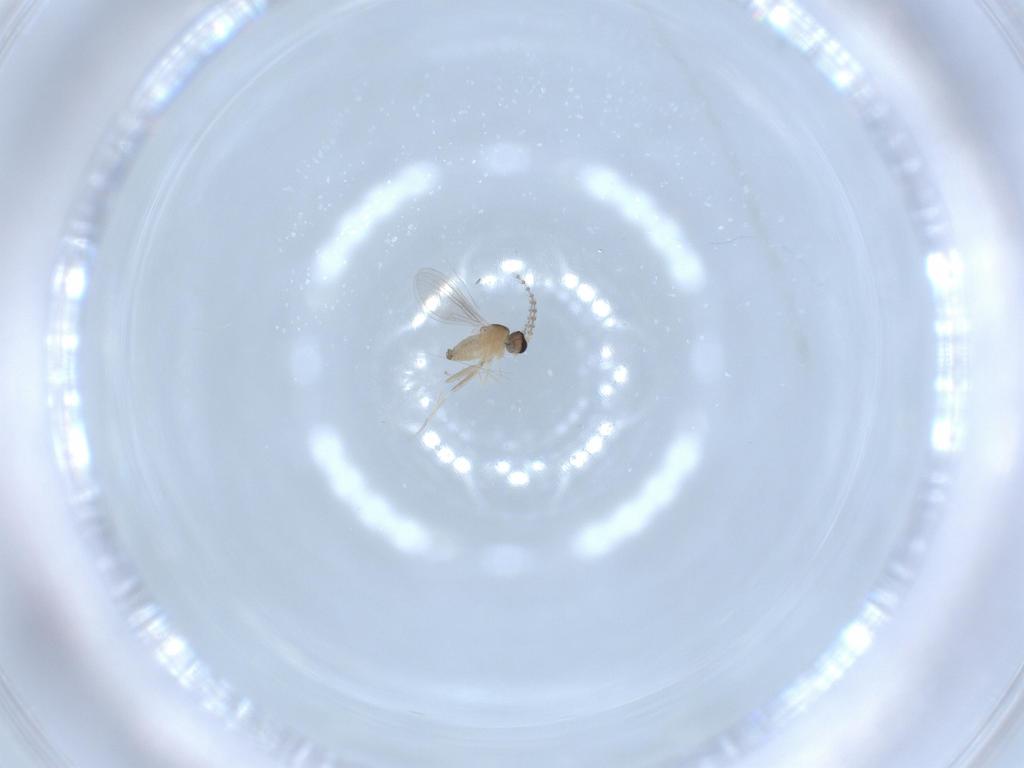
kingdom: Animalia
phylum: Arthropoda
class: Insecta
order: Diptera
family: Cecidomyiidae
